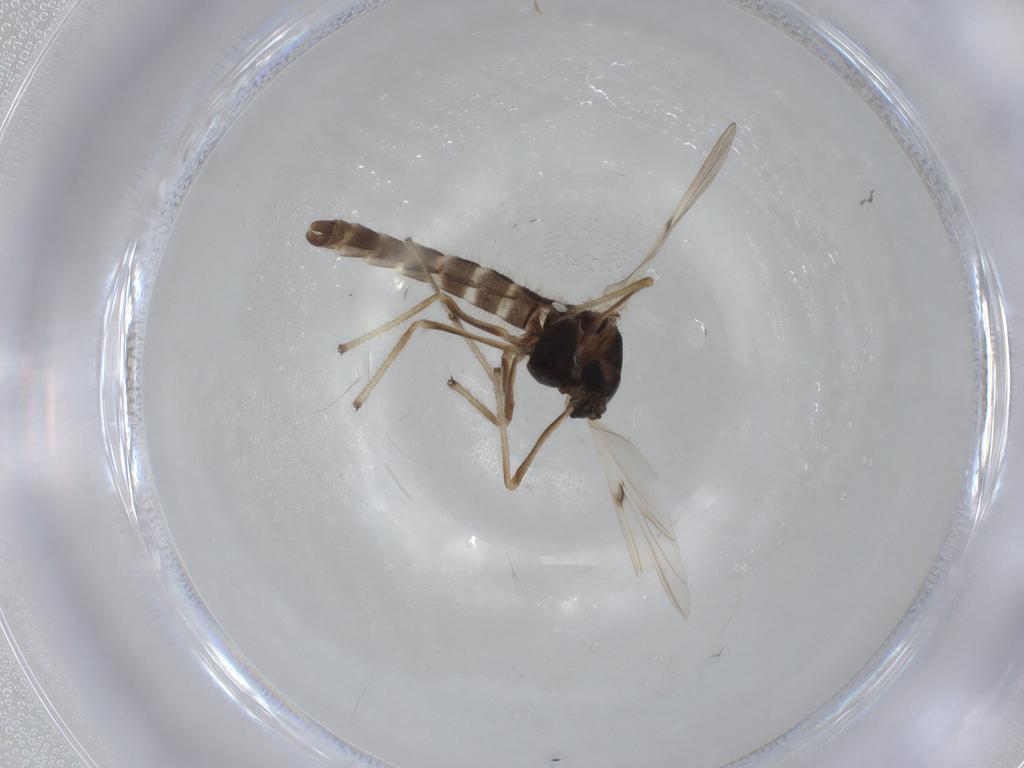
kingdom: Animalia
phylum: Arthropoda
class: Insecta
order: Diptera
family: Chironomidae
